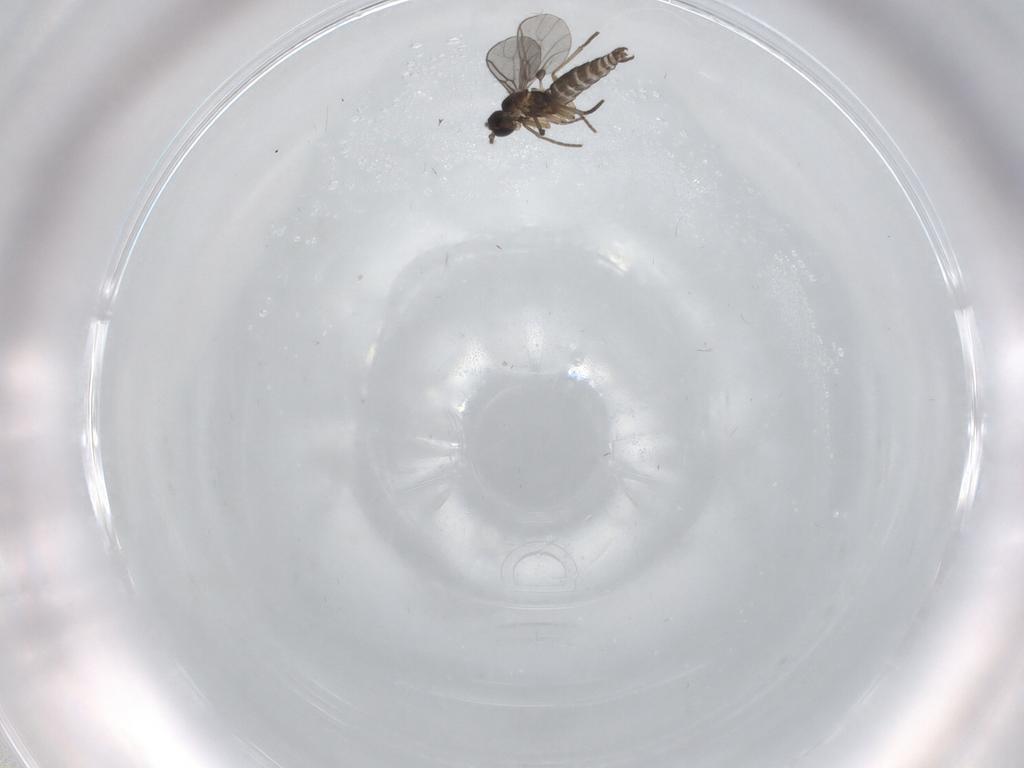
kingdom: Animalia
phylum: Arthropoda
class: Insecta
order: Diptera
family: Sciaridae
